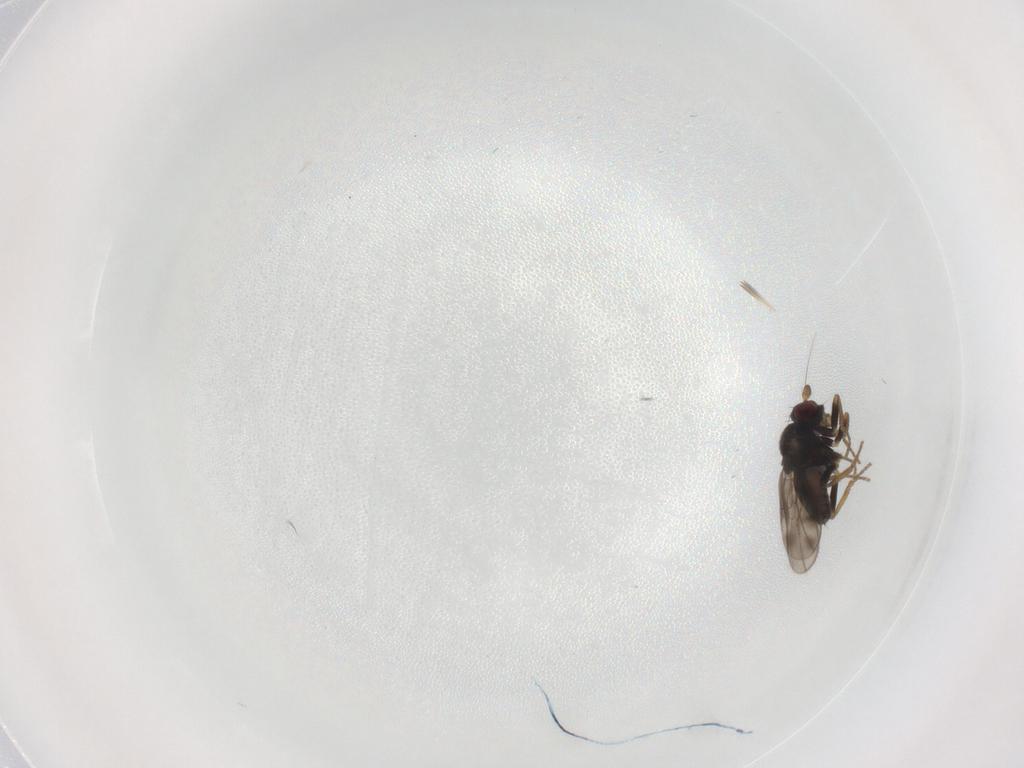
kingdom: Animalia
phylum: Arthropoda
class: Insecta
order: Diptera
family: Sphaeroceridae
